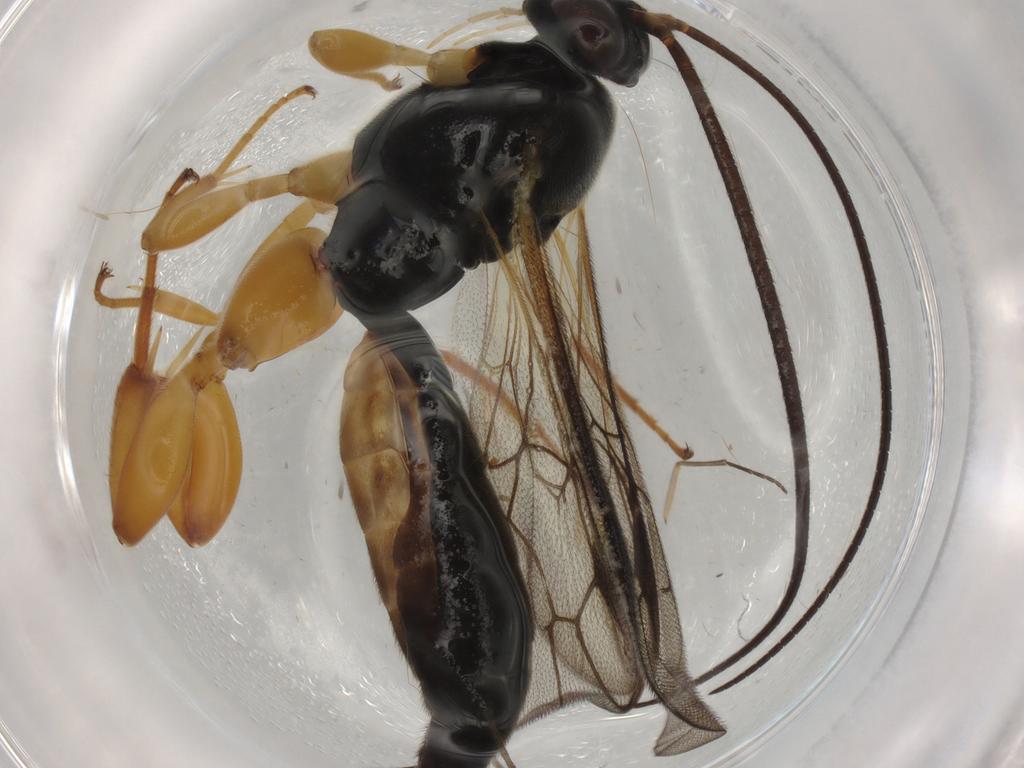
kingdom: Animalia
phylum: Arthropoda
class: Insecta
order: Hymenoptera
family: Ichneumonidae
